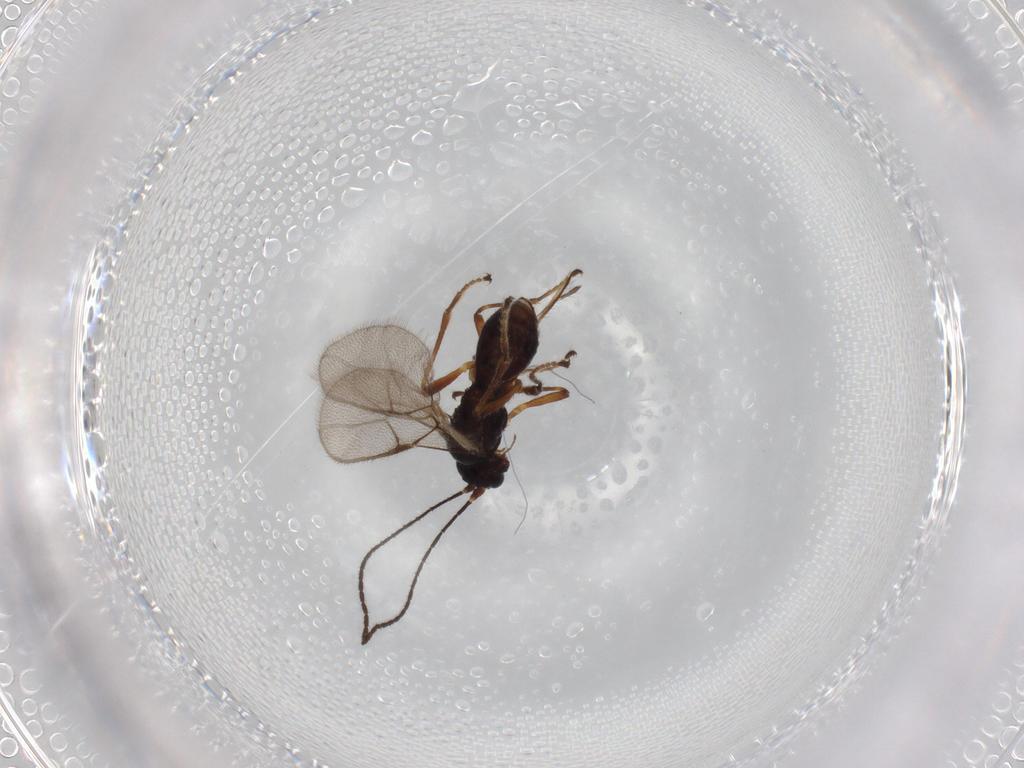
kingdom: Animalia
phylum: Arthropoda
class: Insecta
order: Hymenoptera
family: Braconidae
